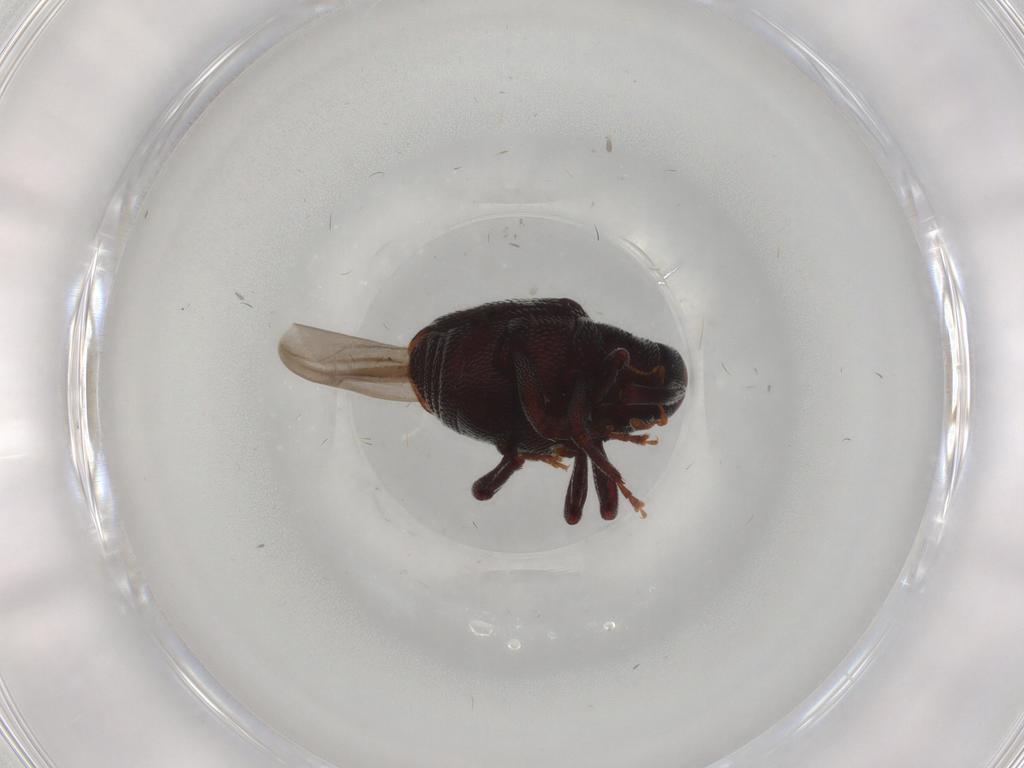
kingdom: Animalia
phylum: Arthropoda
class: Insecta
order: Coleoptera
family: Curculionidae
